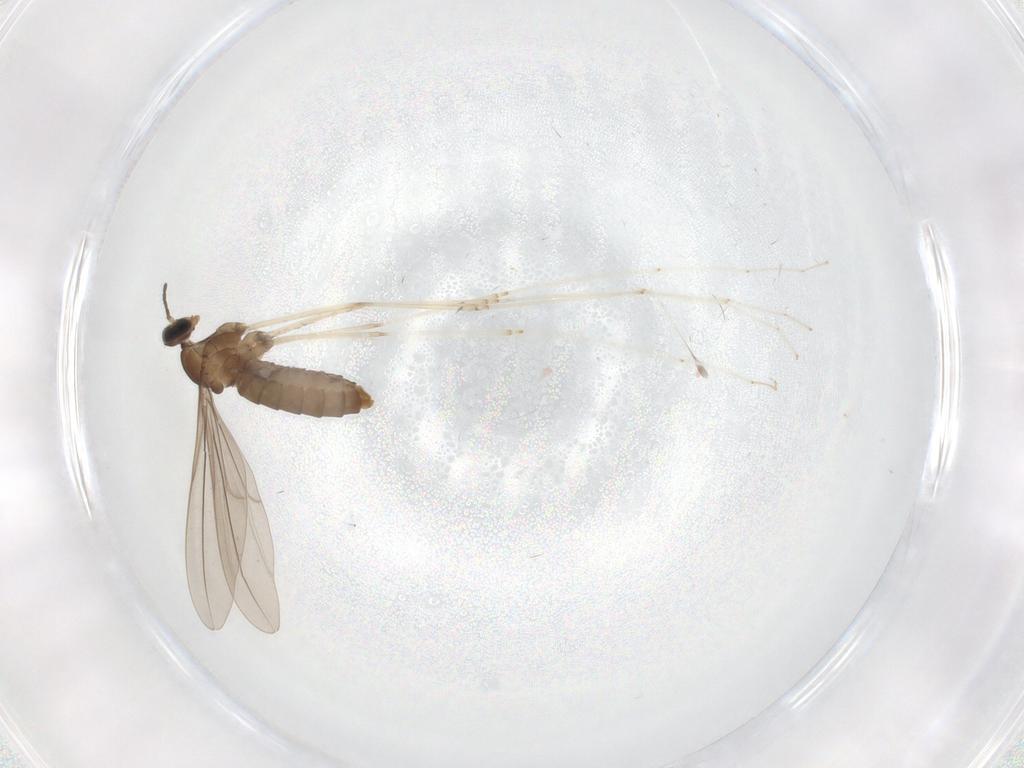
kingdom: Animalia
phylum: Arthropoda
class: Insecta
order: Diptera
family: Cecidomyiidae
